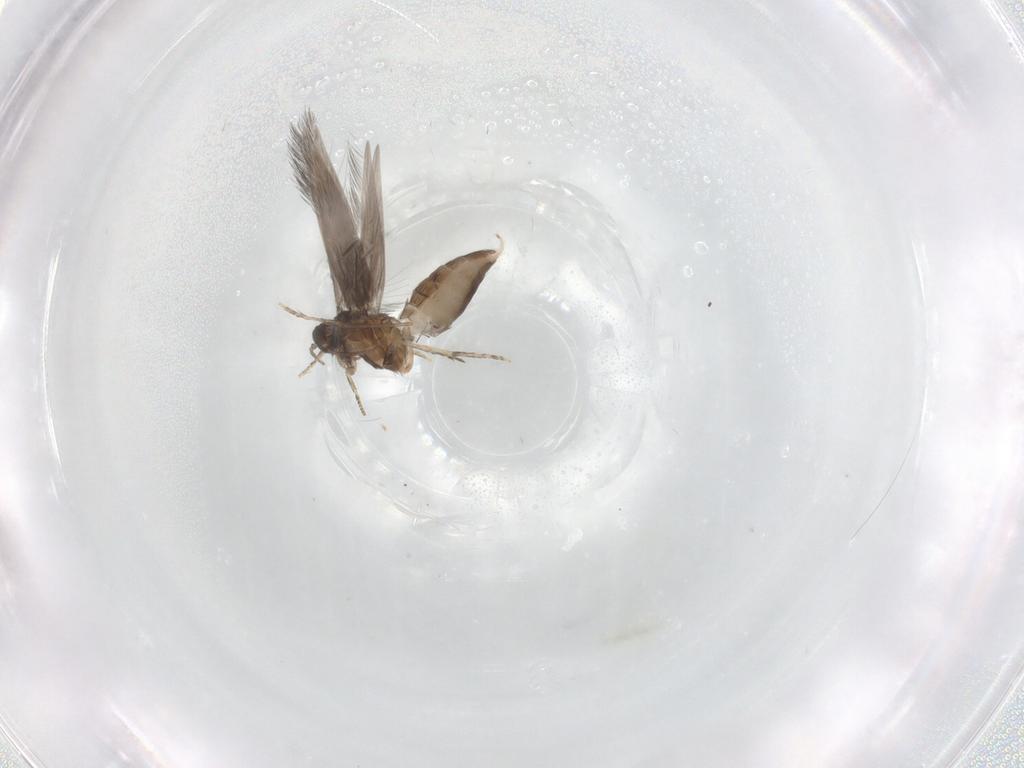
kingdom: Animalia
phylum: Arthropoda
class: Insecta
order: Trichoptera
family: Hydroptilidae
